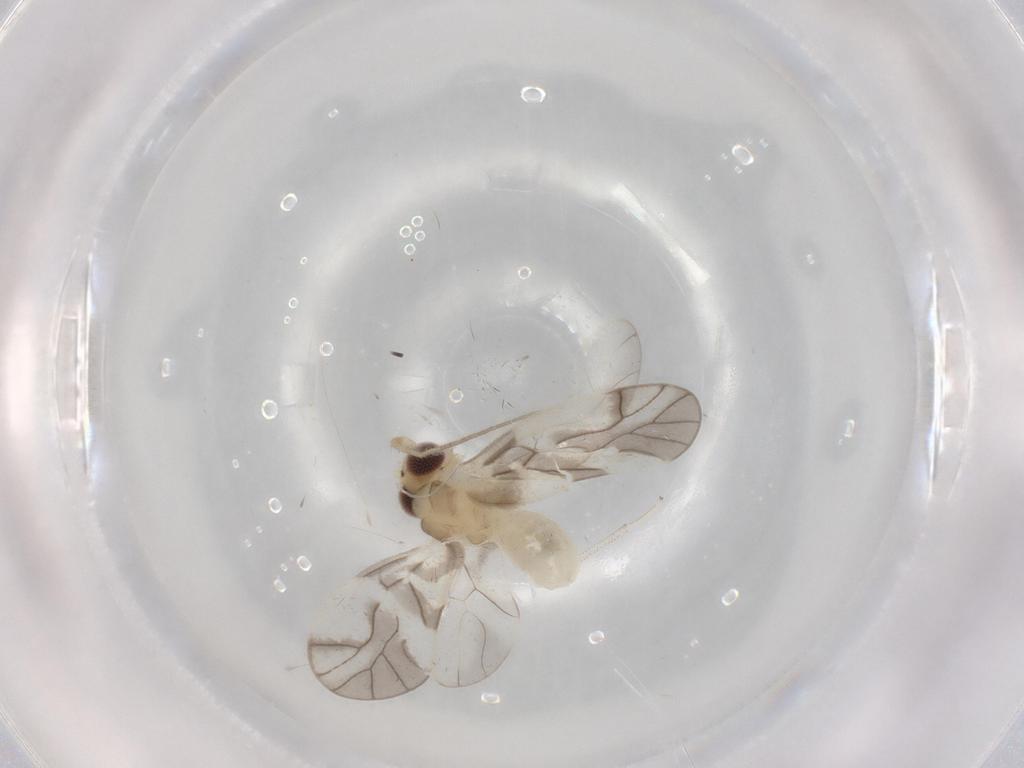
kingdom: Animalia
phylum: Arthropoda
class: Insecta
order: Psocodea
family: Caeciliusidae
